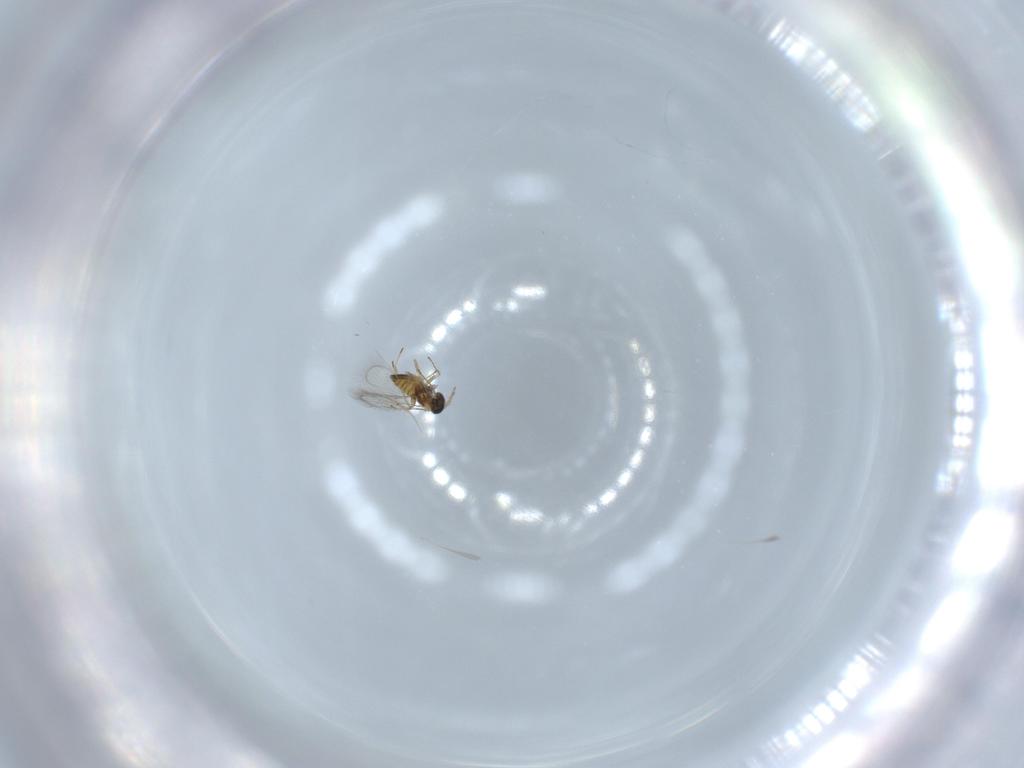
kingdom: Animalia
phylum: Arthropoda
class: Insecta
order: Hymenoptera
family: Trichogrammatidae
